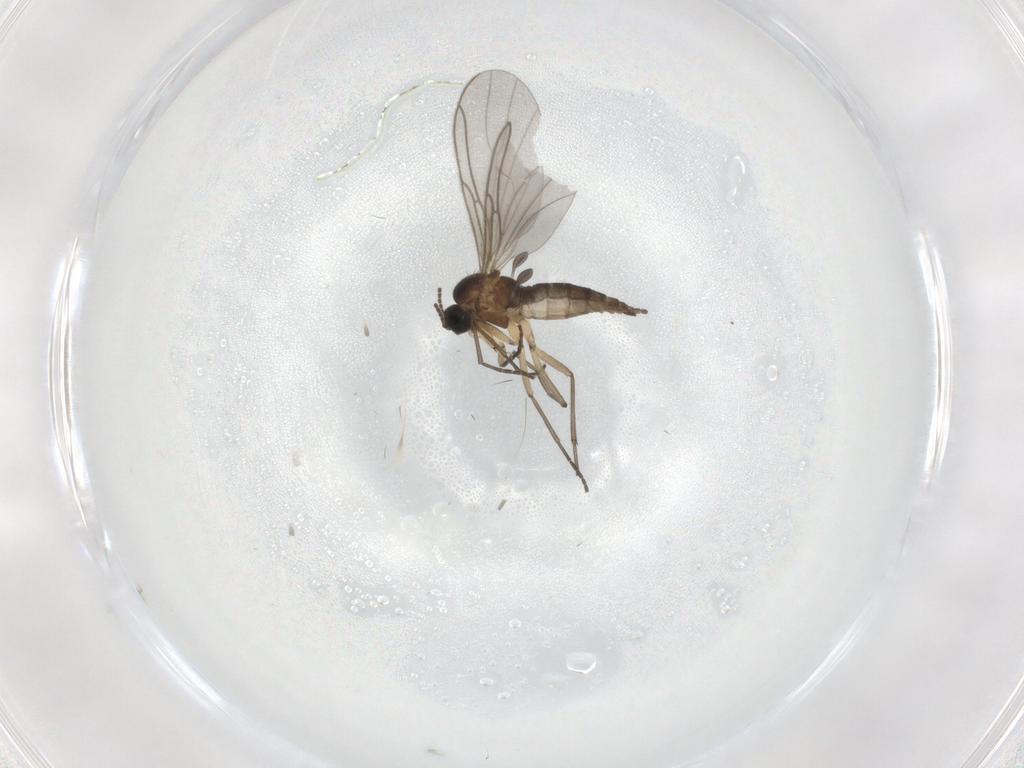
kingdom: Animalia
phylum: Arthropoda
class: Insecta
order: Diptera
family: Sciaridae
